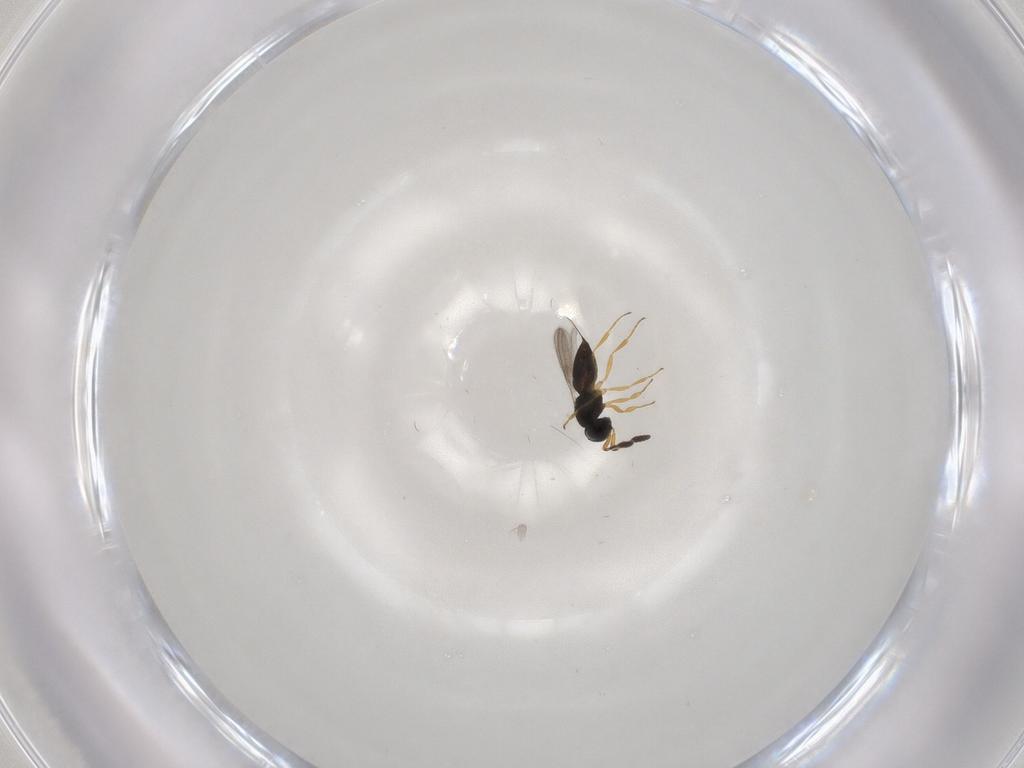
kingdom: Animalia
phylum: Arthropoda
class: Insecta
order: Hymenoptera
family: Scelionidae
